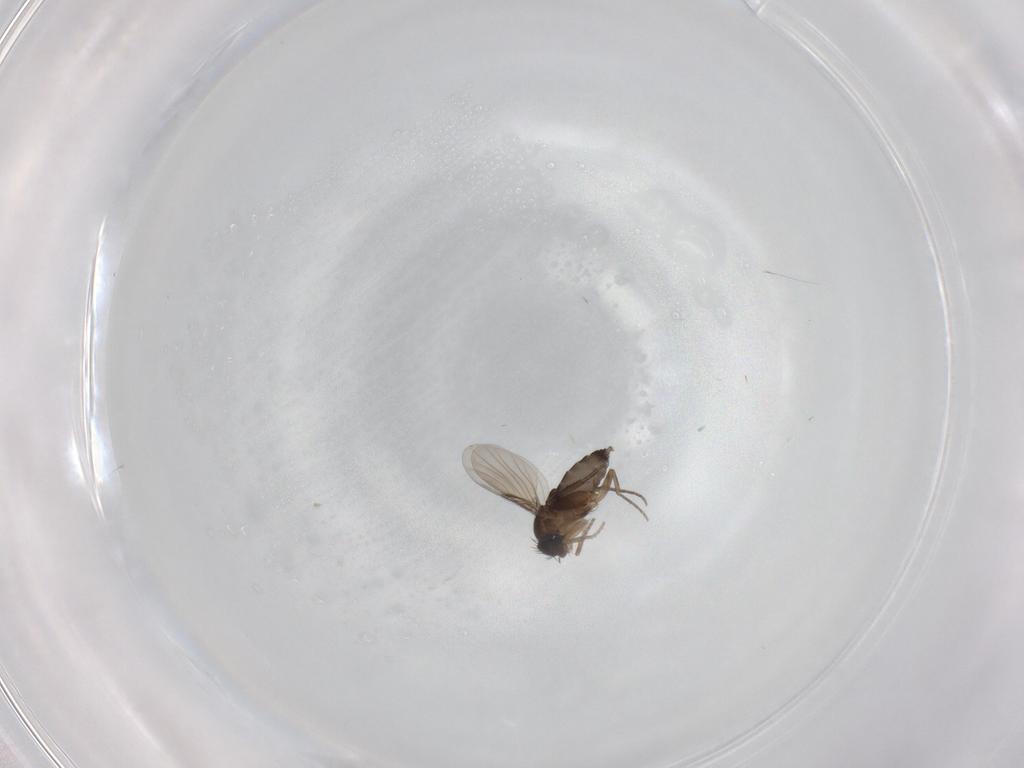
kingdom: Animalia
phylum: Arthropoda
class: Insecta
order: Diptera
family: Phoridae
